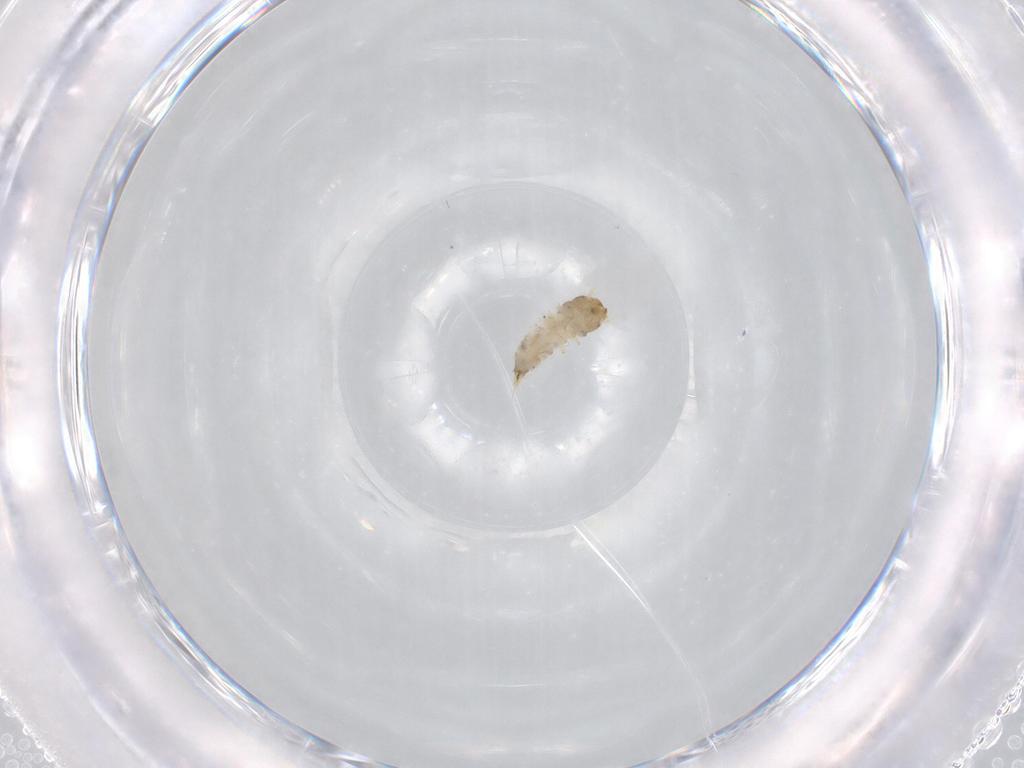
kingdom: Animalia
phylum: Arthropoda
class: Insecta
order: Coleoptera
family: Nitidulidae
